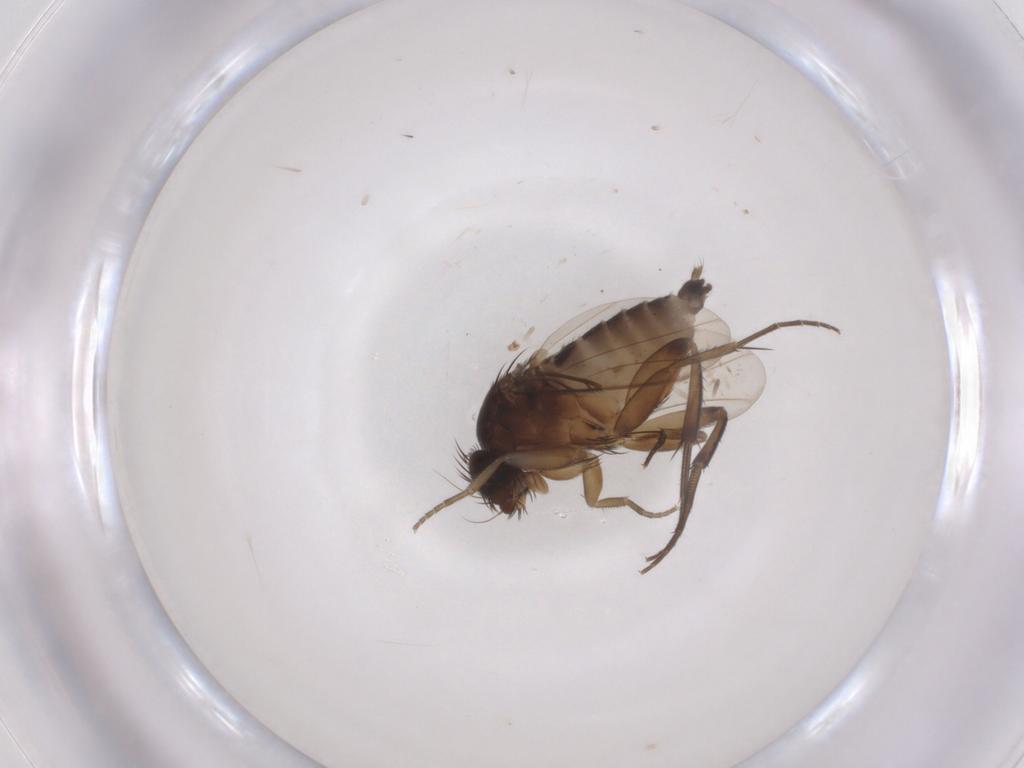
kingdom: Animalia
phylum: Arthropoda
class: Insecta
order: Diptera
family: Phoridae
